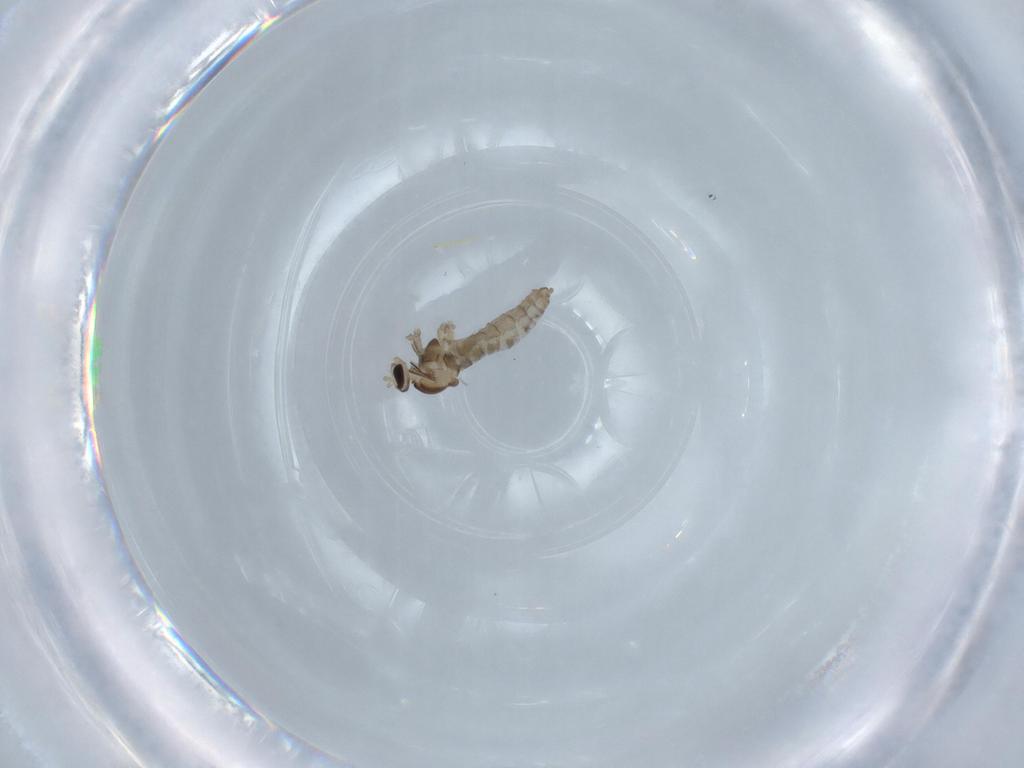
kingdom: Animalia
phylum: Arthropoda
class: Insecta
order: Diptera
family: Cecidomyiidae
